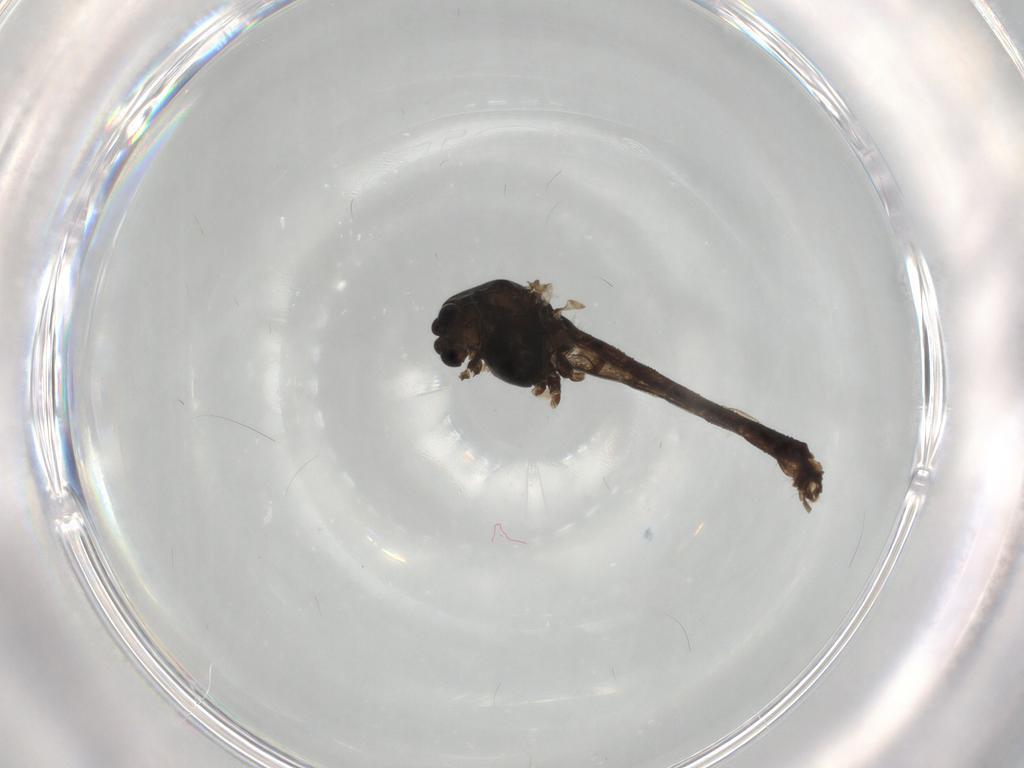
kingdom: Animalia
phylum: Arthropoda
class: Insecta
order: Diptera
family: Chironomidae
